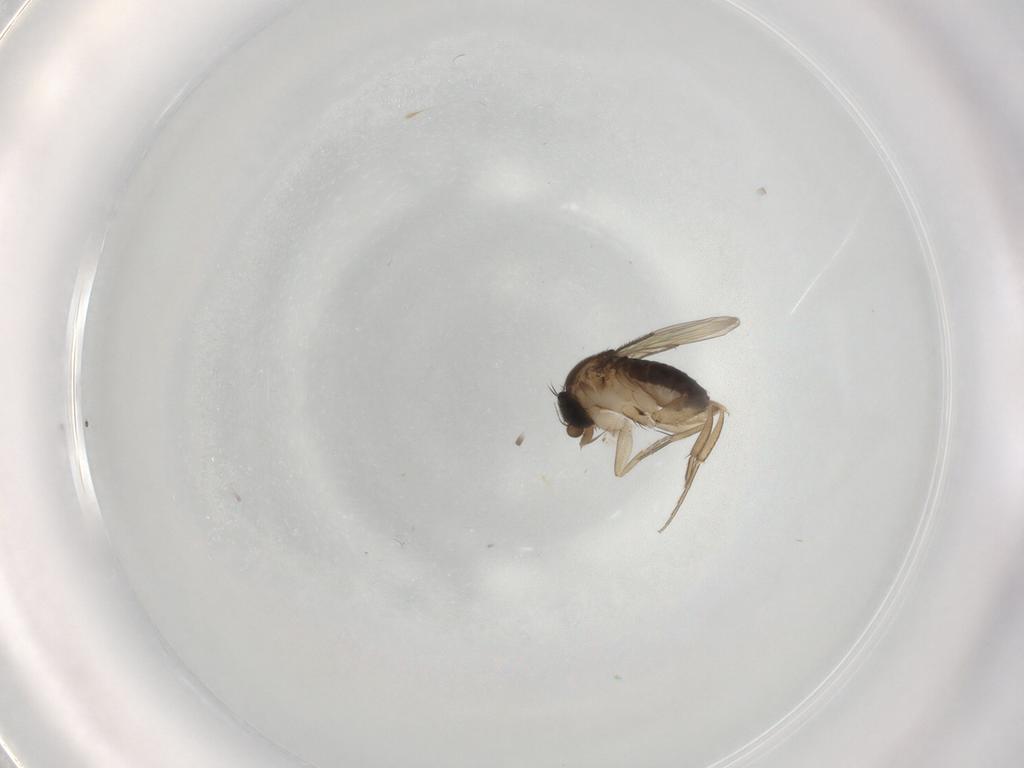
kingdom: Animalia
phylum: Arthropoda
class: Insecta
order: Diptera
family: Phoridae
